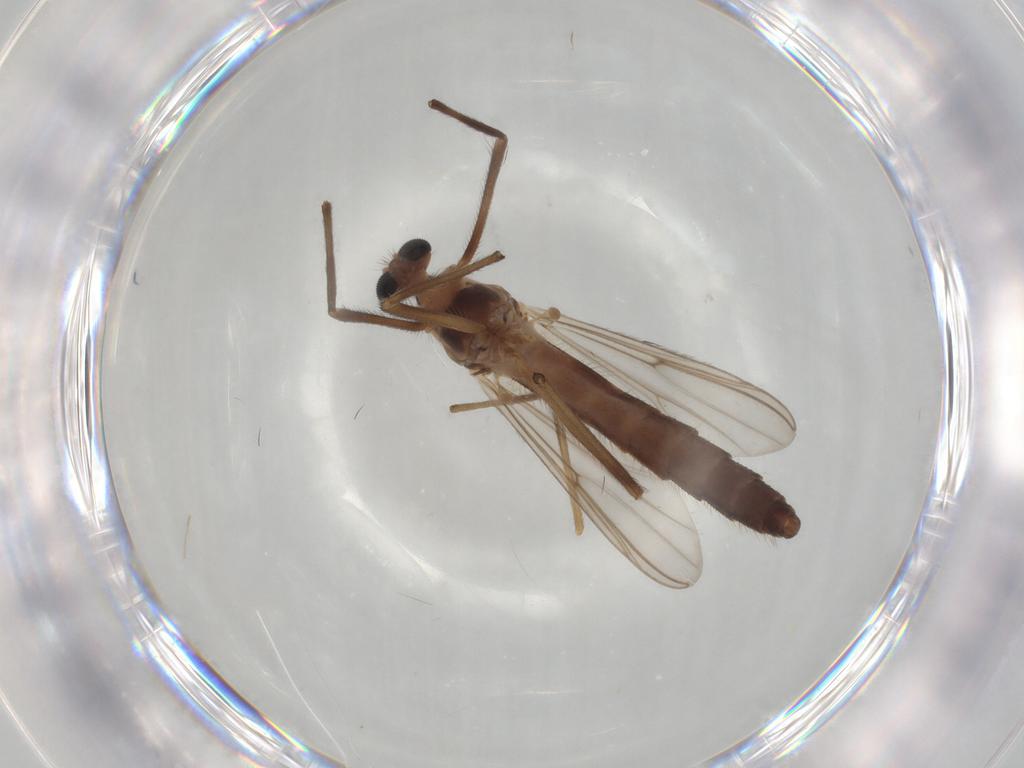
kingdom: Animalia
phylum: Arthropoda
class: Insecta
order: Diptera
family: Chironomidae
